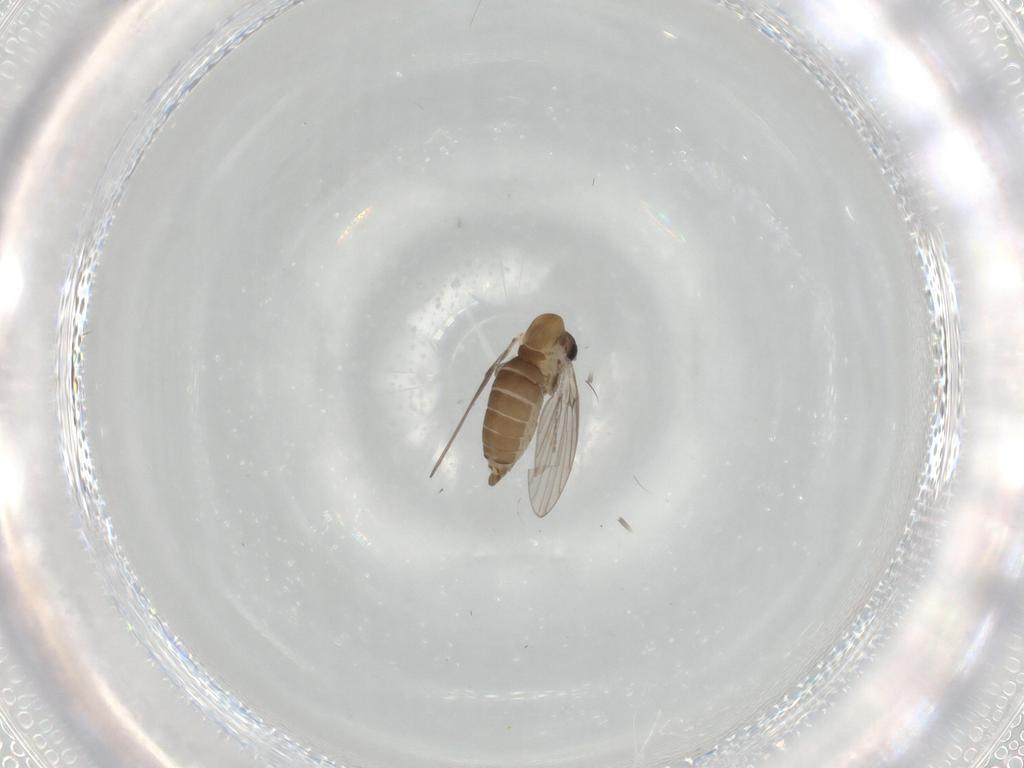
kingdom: Animalia
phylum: Arthropoda
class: Insecta
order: Diptera
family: Psychodidae
